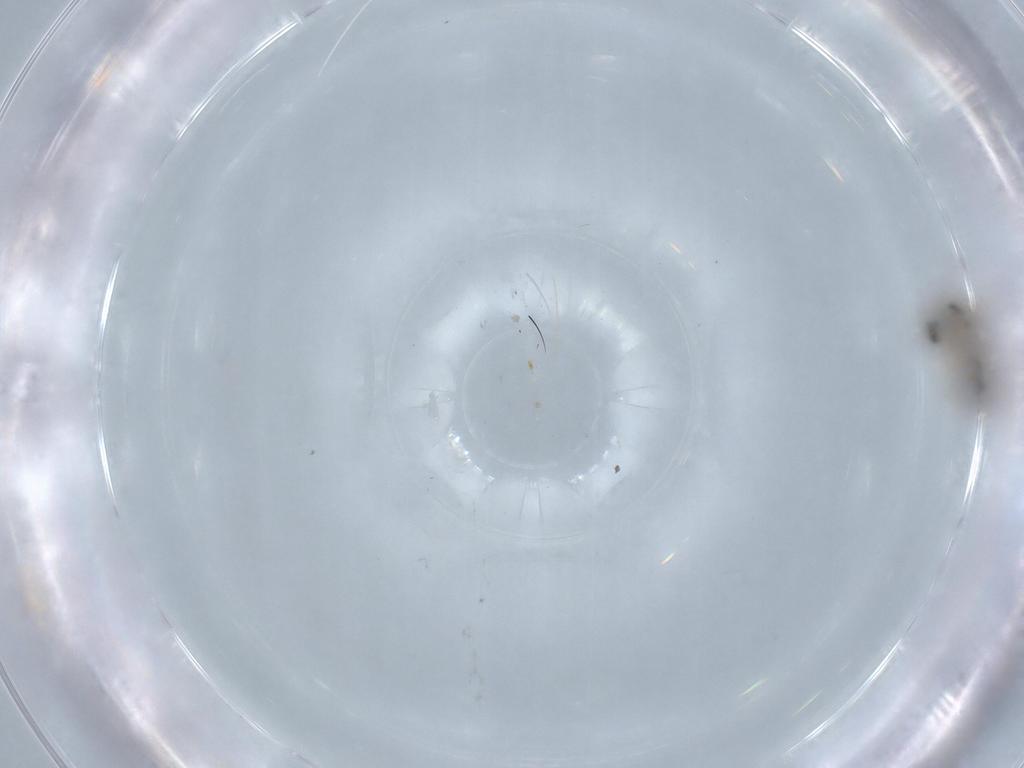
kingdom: Animalia
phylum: Arthropoda
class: Insecta
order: Diptera
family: Ceratopogonidae
